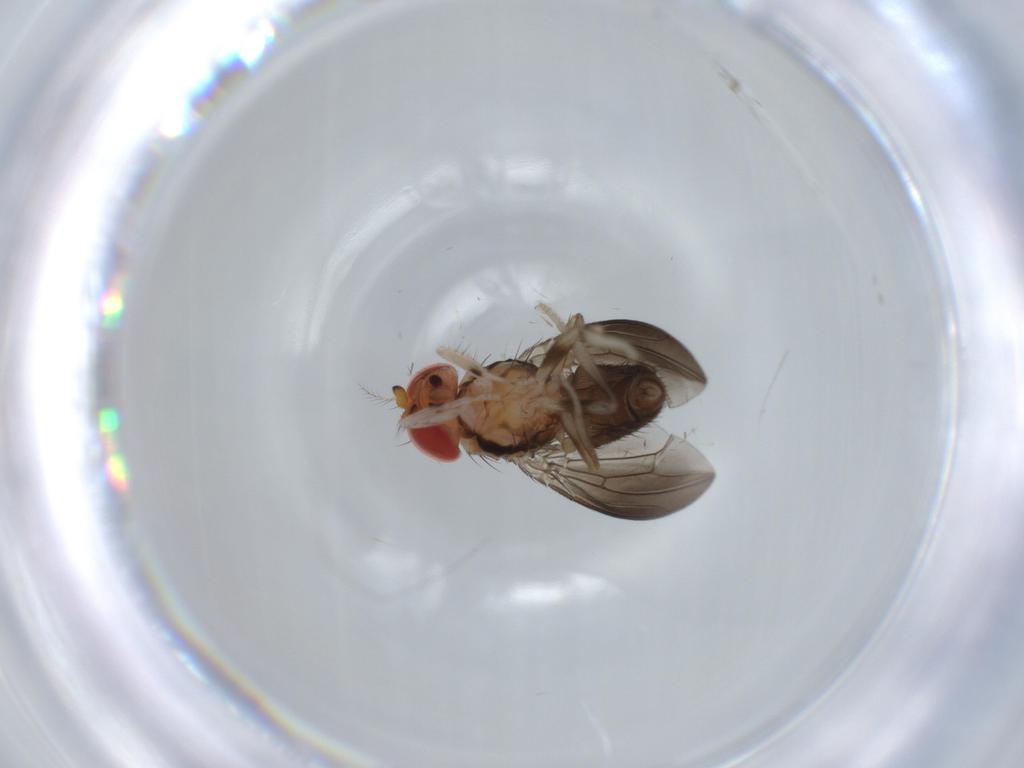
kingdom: Animalia
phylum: Arthropoda
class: Insecta
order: Diptera
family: Drosophilidae
